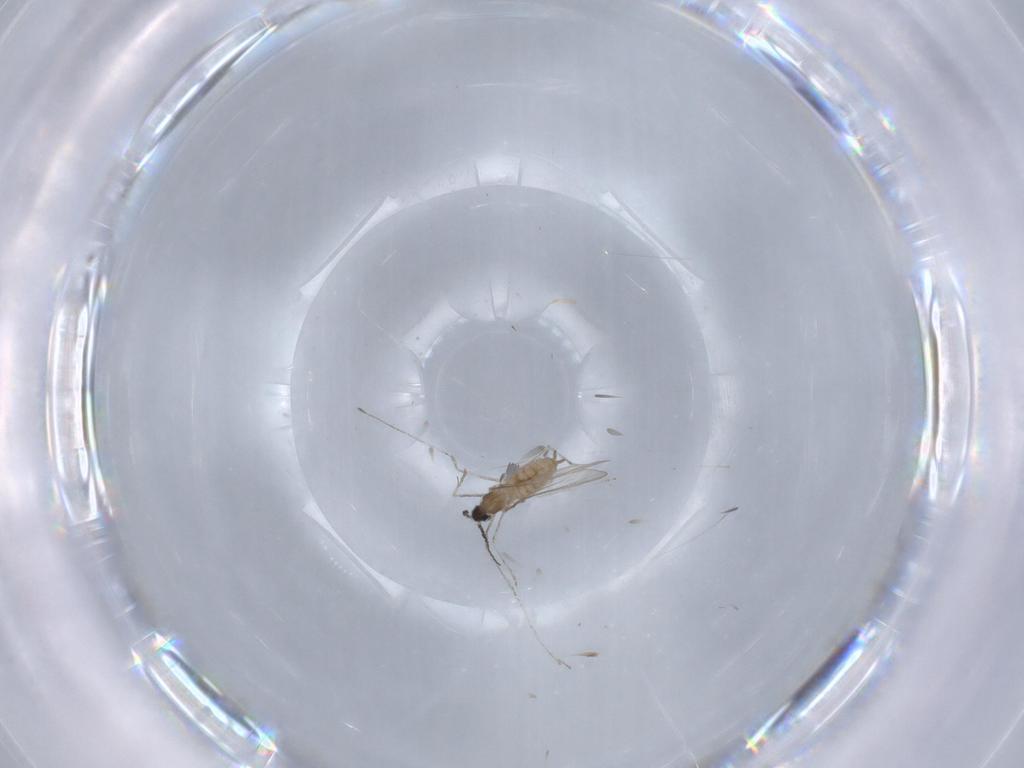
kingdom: Animalia
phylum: Arthropoda
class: Insecta
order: Diptera
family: Cecidomyiidae
